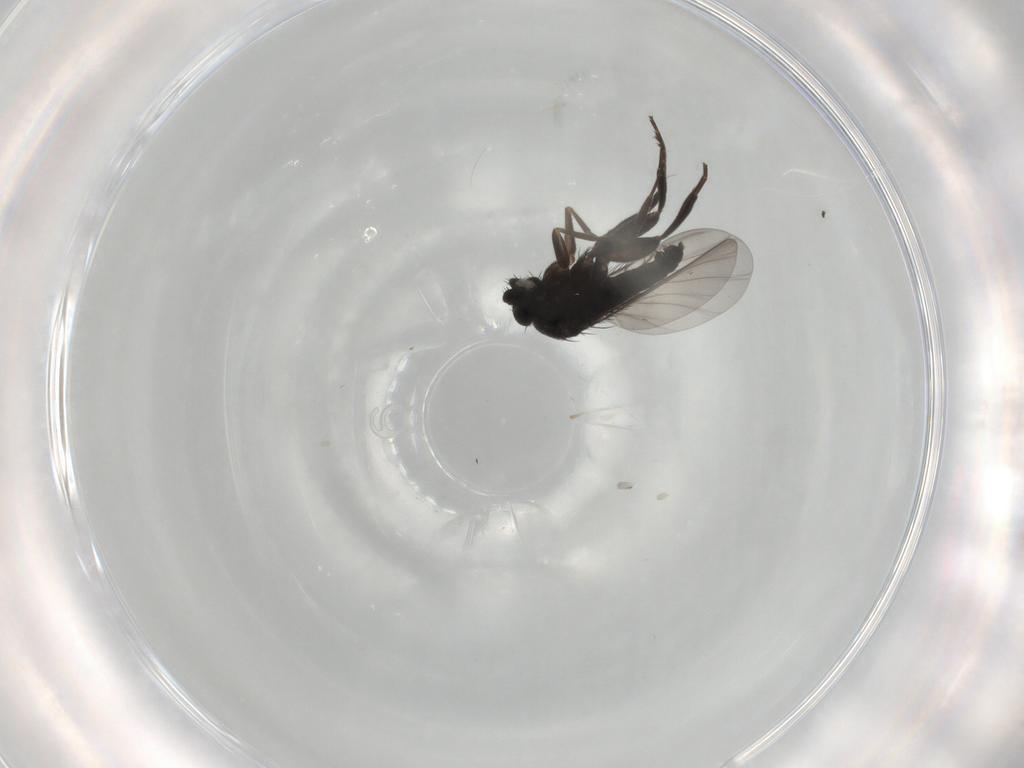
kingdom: Animalia
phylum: Arthropoda
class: Insecta
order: Diptera
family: Phoridae
